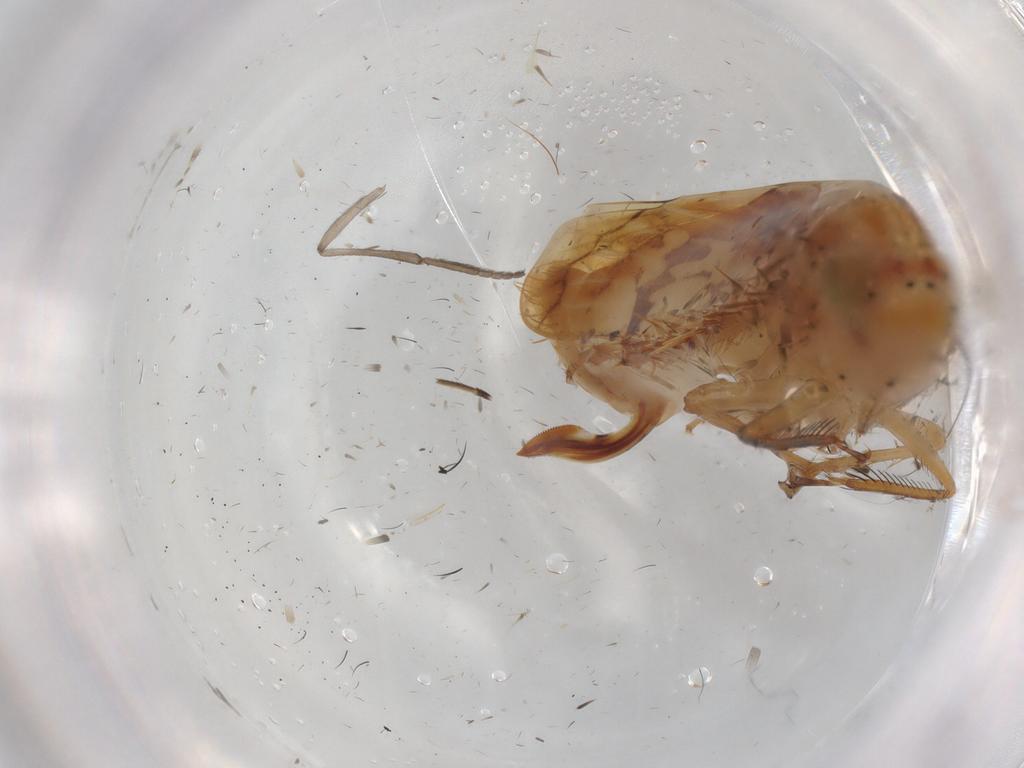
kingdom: Animalia
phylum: Arthropoda
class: Insecta
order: Hemiptera
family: Cicadellidae
